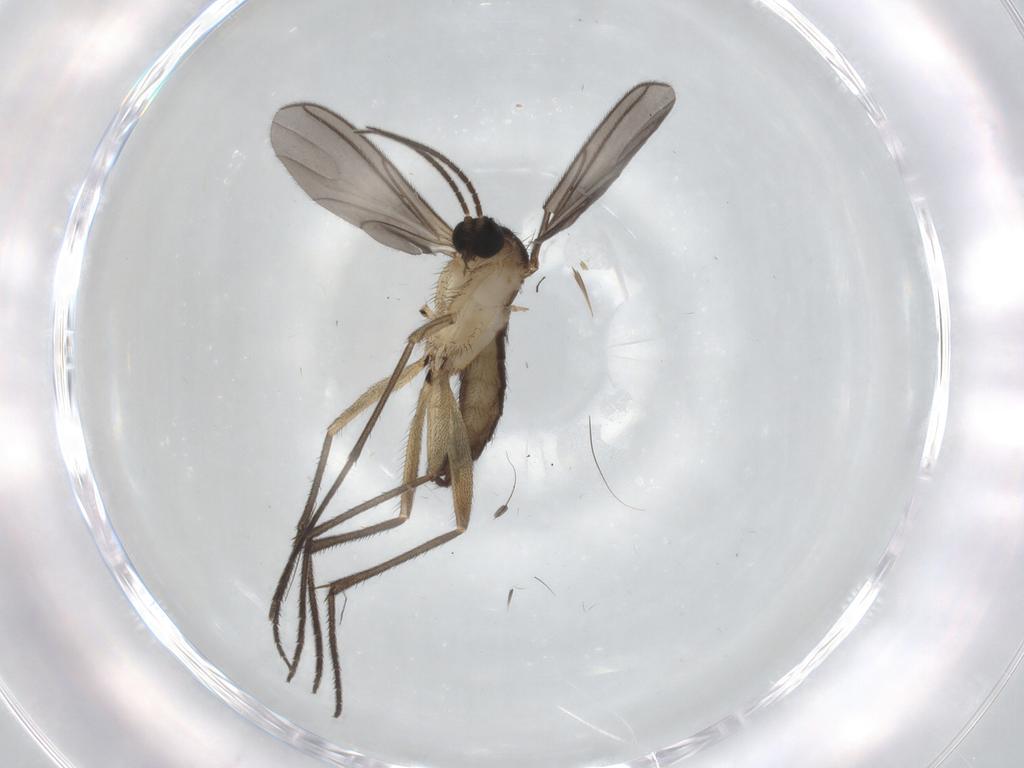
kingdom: Animalia
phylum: Arthropoda
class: Insecta
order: Diptera
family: Sciaridae
